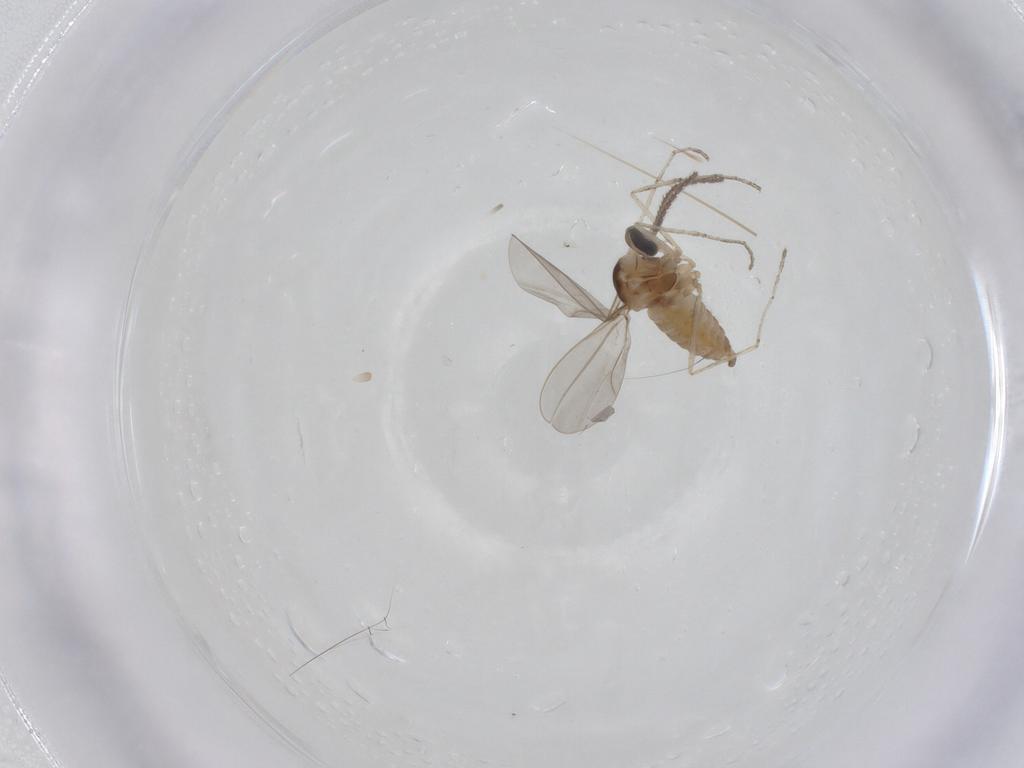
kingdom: Animalia
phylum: Arthropoda
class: Insecta
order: Diptera
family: Cecidomyiidae
